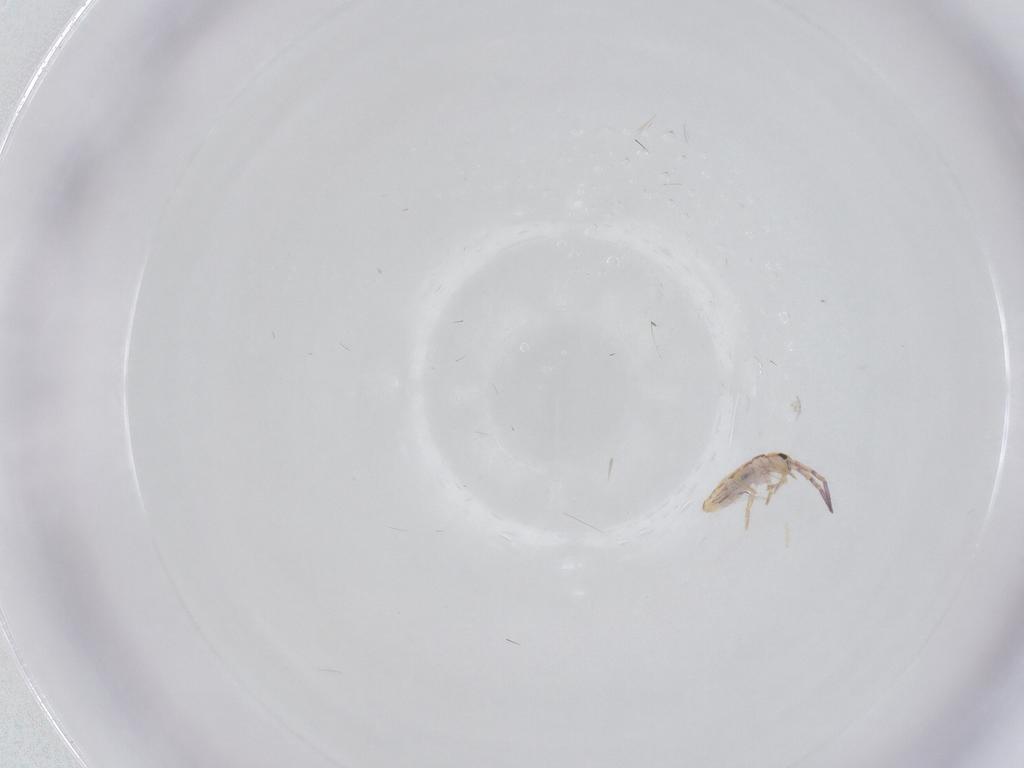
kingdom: Animalia
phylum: Arthropoda
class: Collembola
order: Entomobryomorpha
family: Entomobryidae
